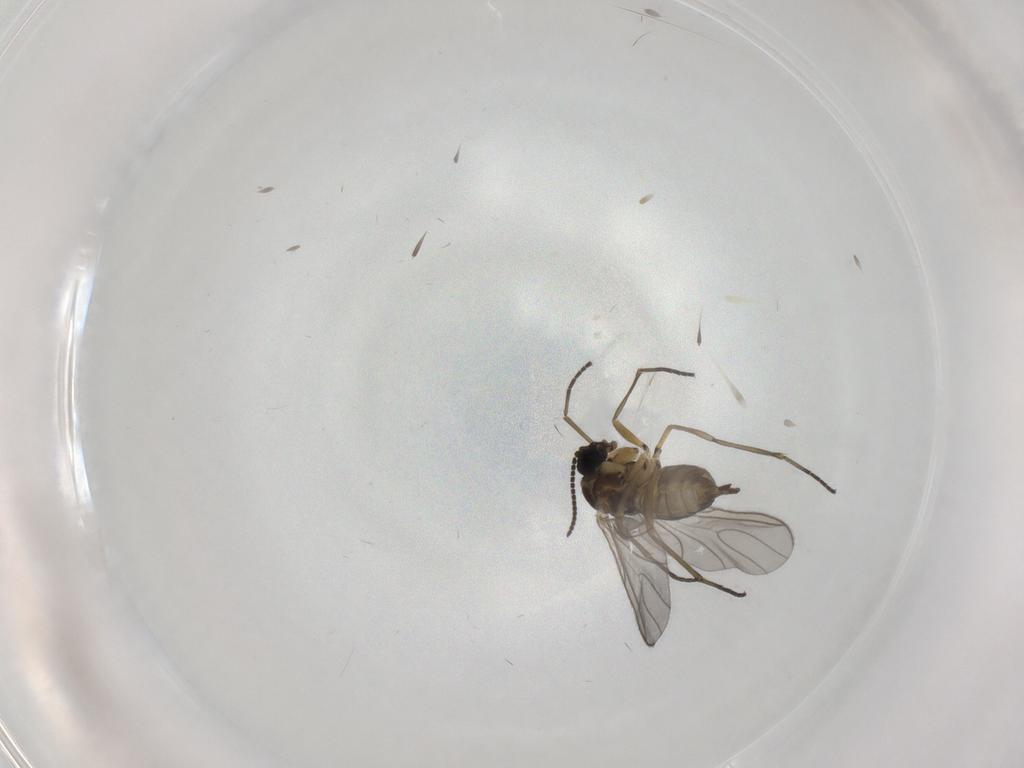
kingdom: Animalia
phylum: Arthropoda
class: Insecta
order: Diptera
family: Sciaridae
